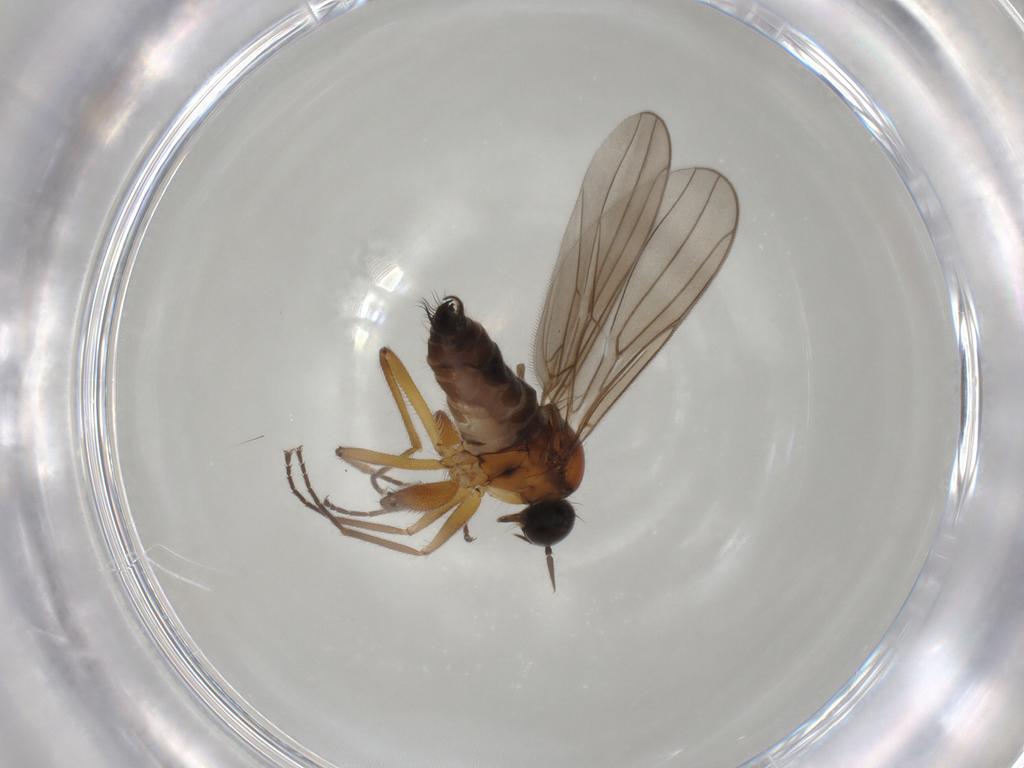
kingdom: Animalia
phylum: Arthropoda
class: Insecta
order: Diptera
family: Hybotidae
